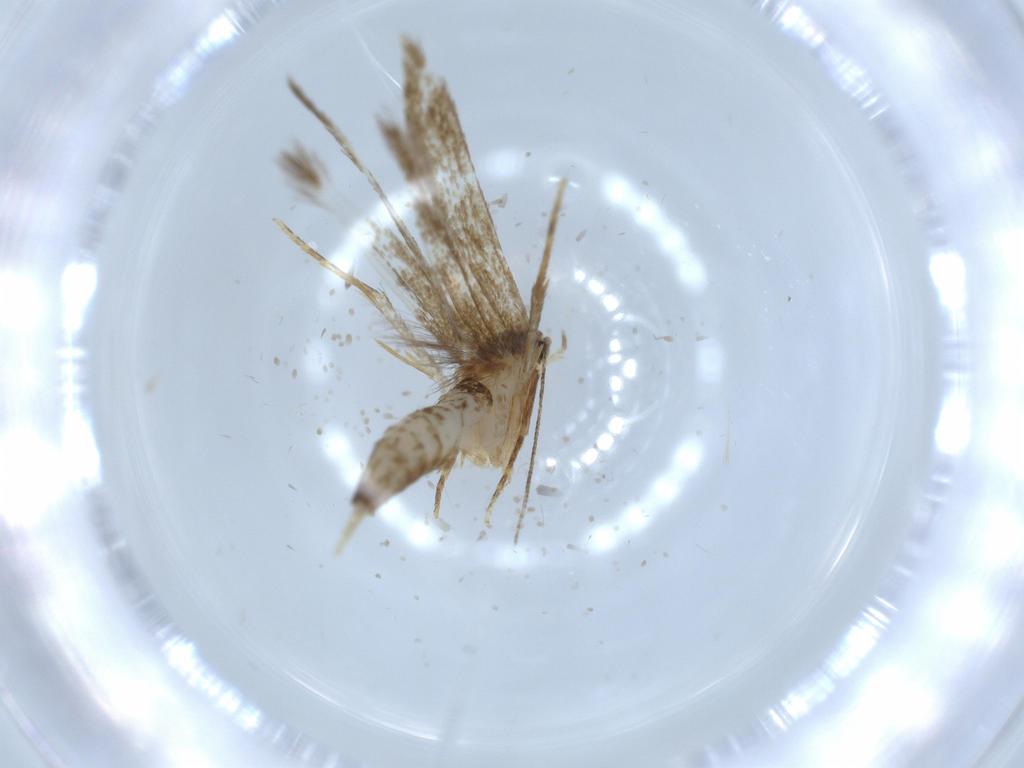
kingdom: Animalia
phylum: Arthropoda
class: Insecta
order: Lepidoptera
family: Tineidae
